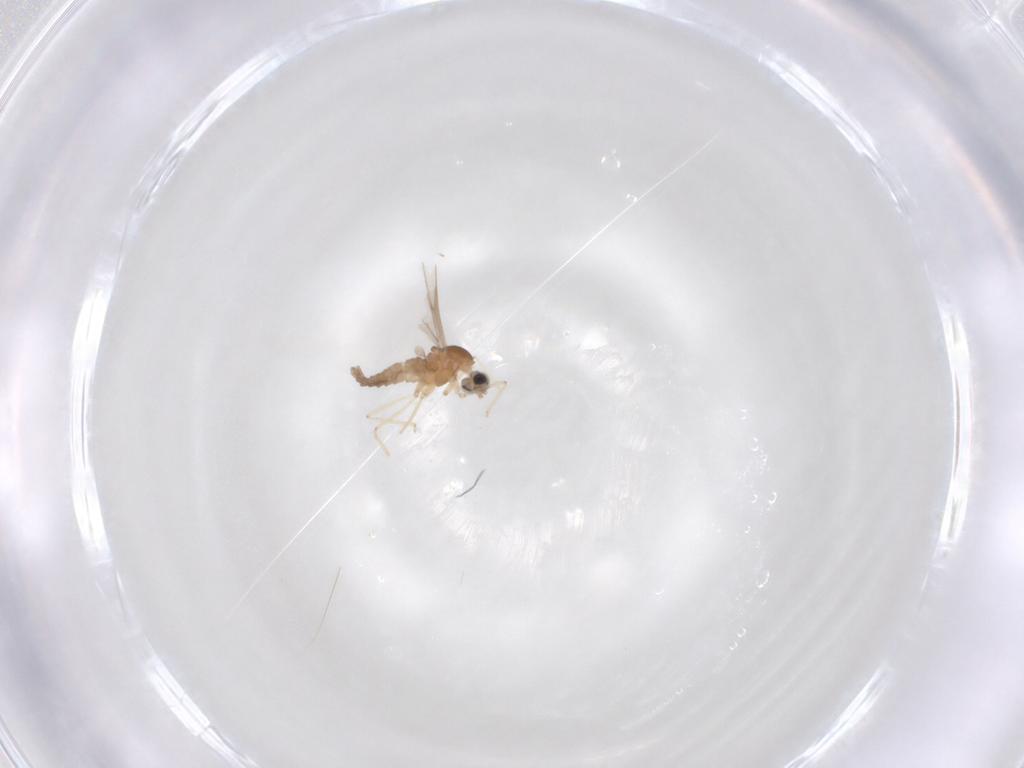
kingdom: Animalia
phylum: Arthropoda
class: Insecta
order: Diptera
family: Cecidomyiidae
